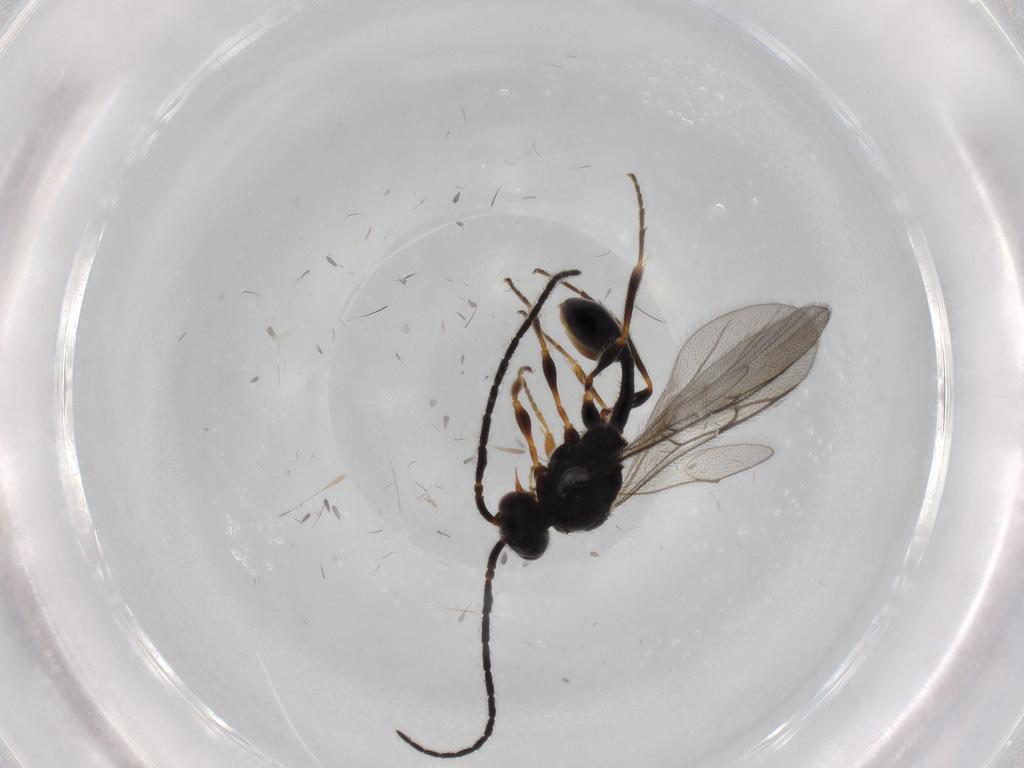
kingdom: Animalia
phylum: Arthropoda
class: Insecta
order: Hymenoptera
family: Diapriidae
